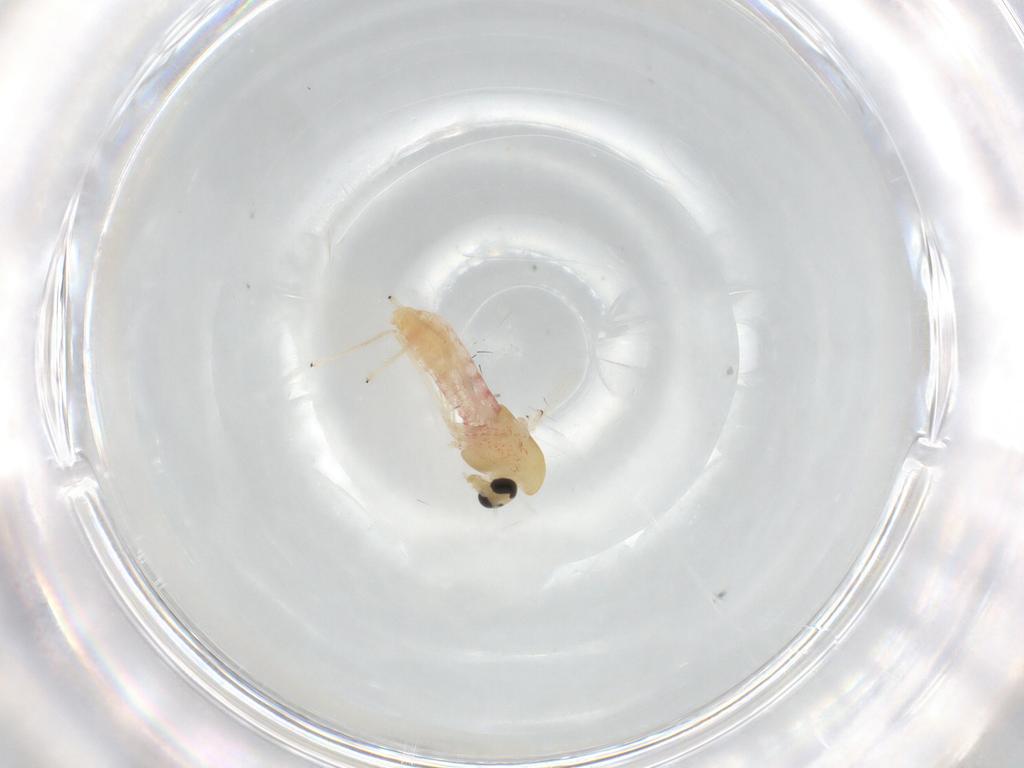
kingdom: Animalia
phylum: Arthropoda
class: Insecta
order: Diptera
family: Chironomidae
